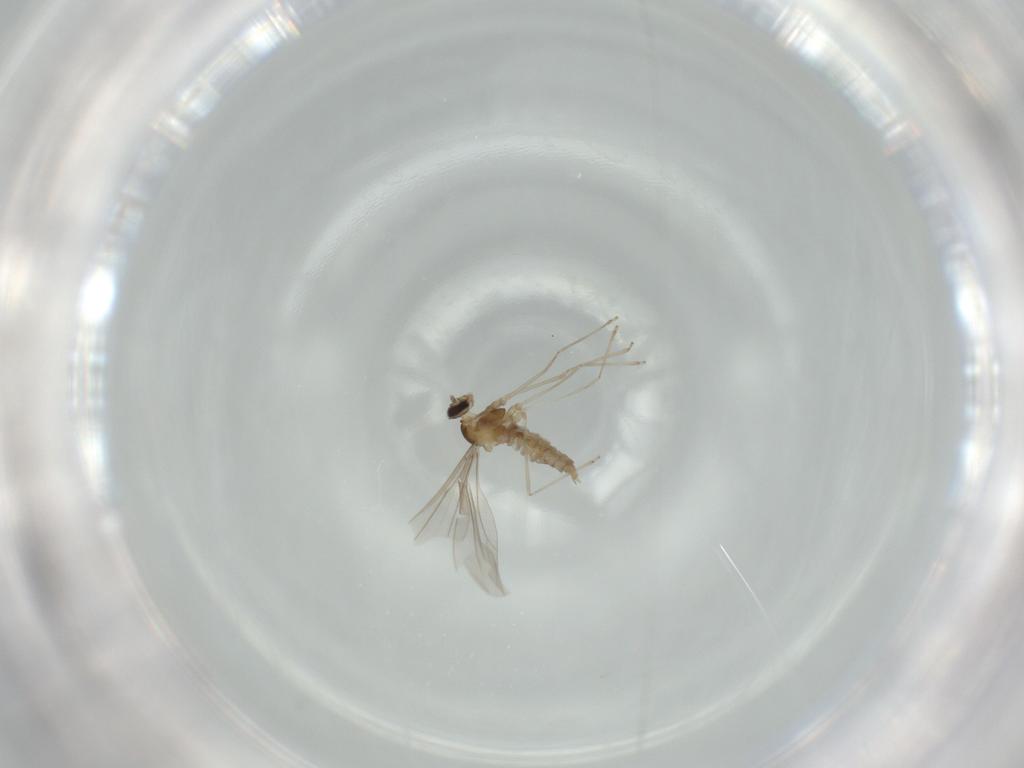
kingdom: Animalia
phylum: Arthropoda
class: Insecta
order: Diptera
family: Cecidomyiidae
